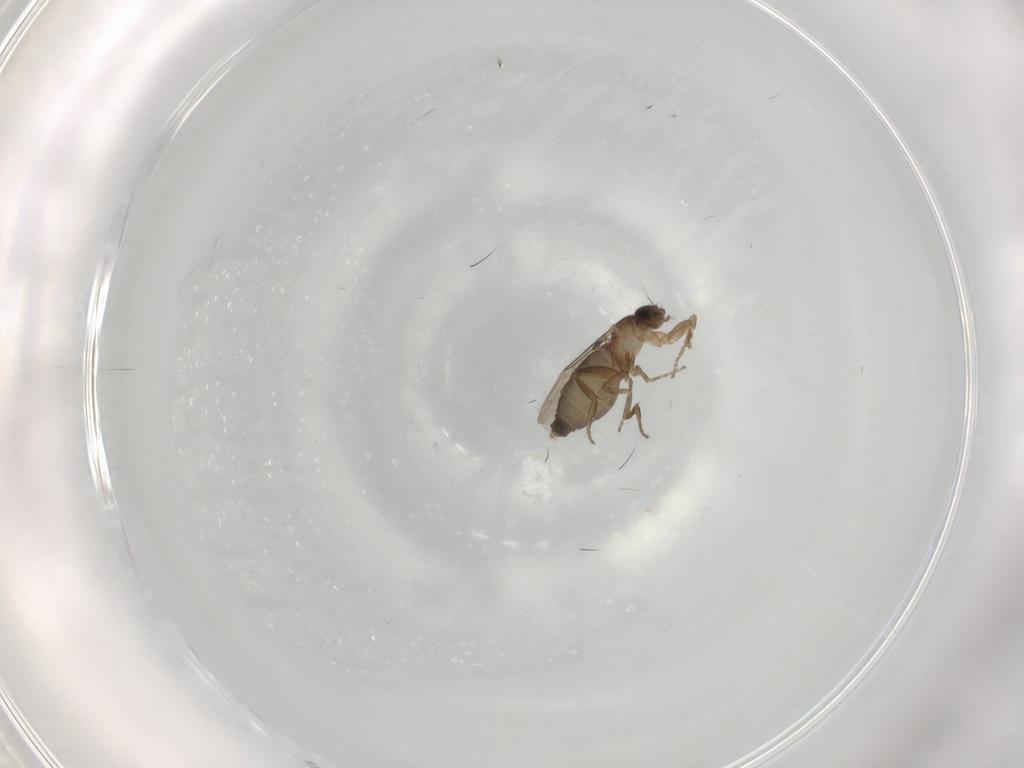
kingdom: Animalia
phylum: Arthropoda
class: Insecta
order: Diptera
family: Phoridae
